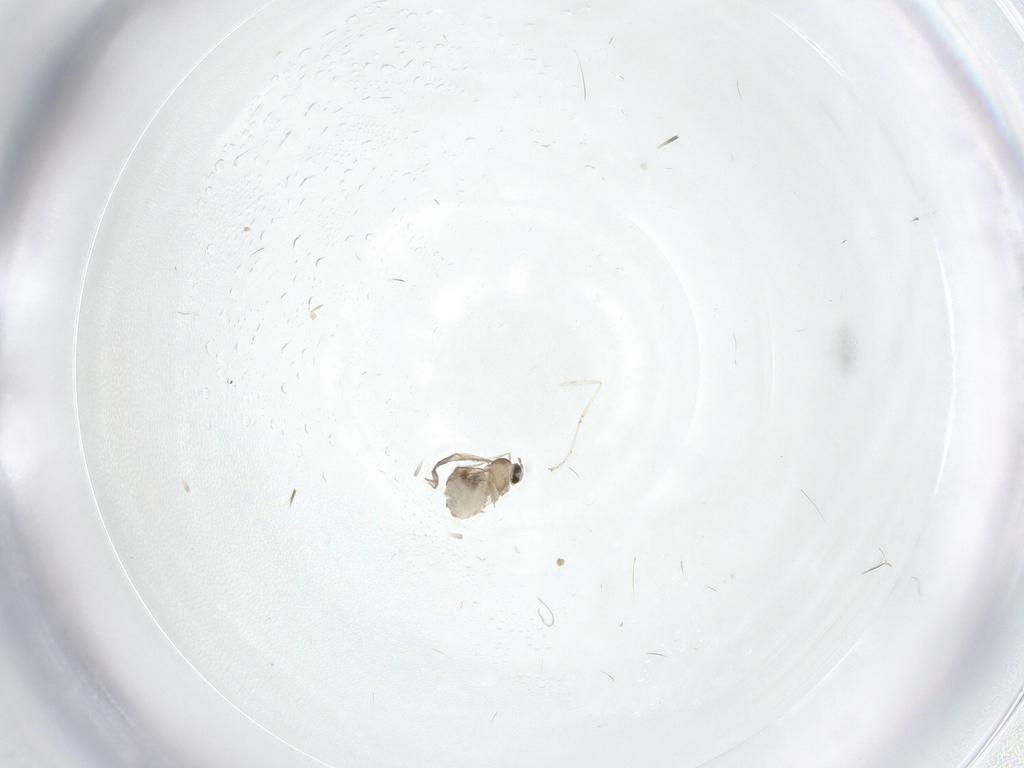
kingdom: Animalia
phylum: Arthropoda
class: Insecta
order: Diptera
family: Cecidomyiidae
